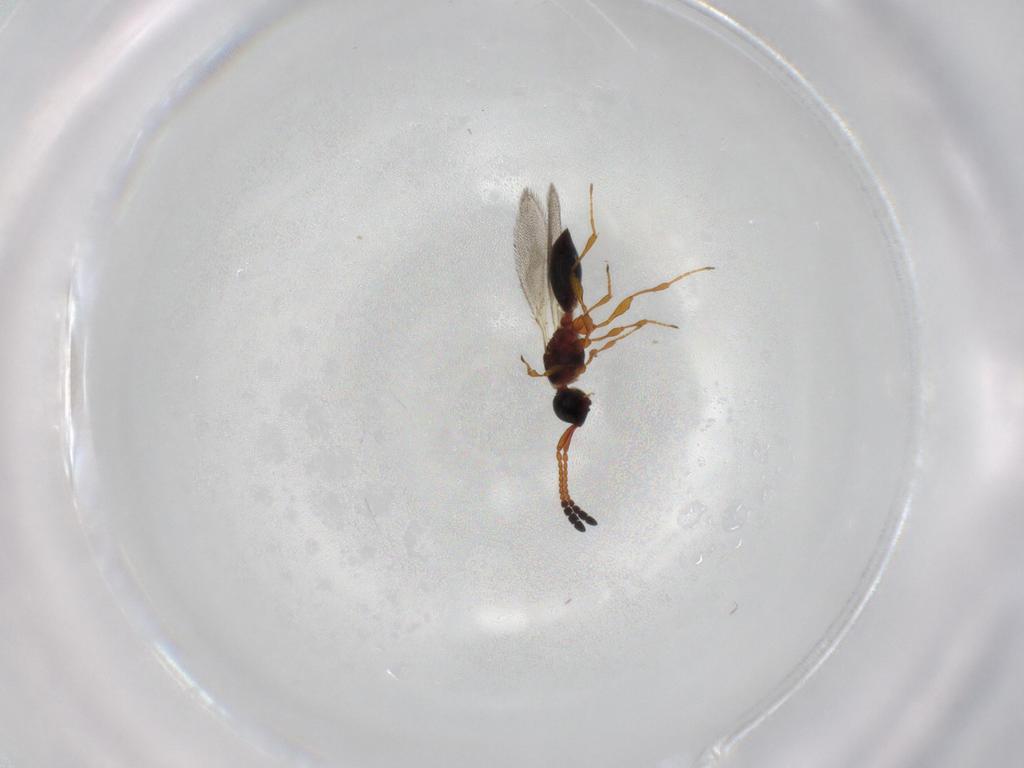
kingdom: Animalia
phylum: Arthropoda
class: Insecta
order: Hymenoptera
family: Diapriidae
